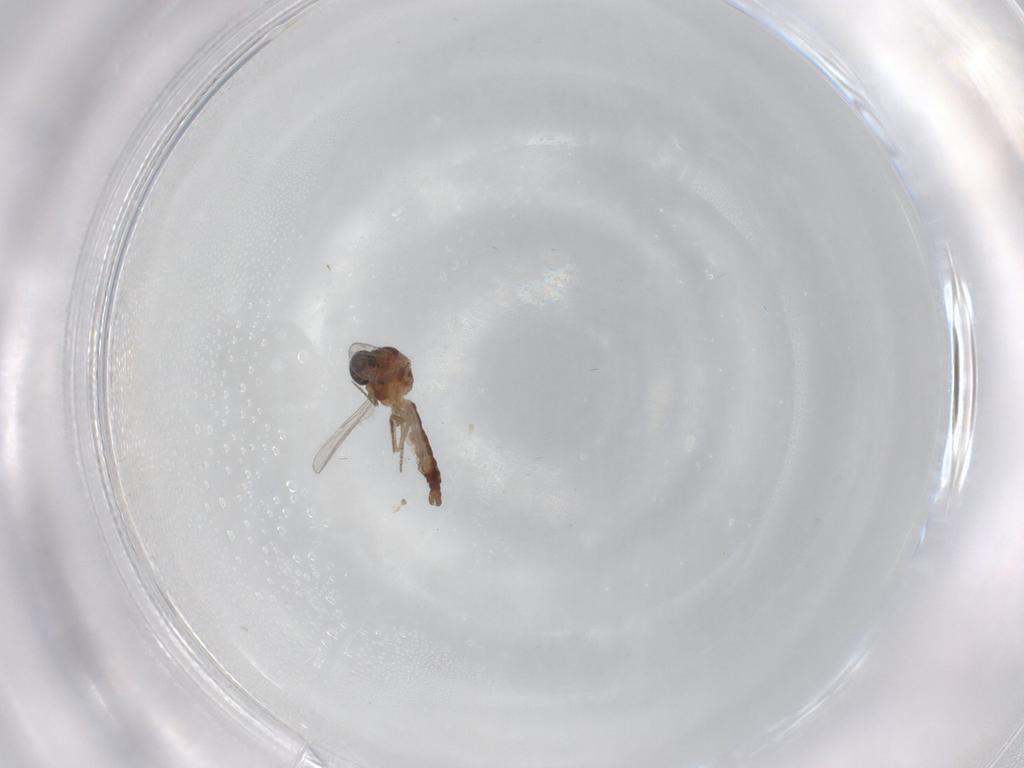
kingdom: Animalia
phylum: Arthropoda
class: Insecta
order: Diptera
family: Ceratopogonidae
